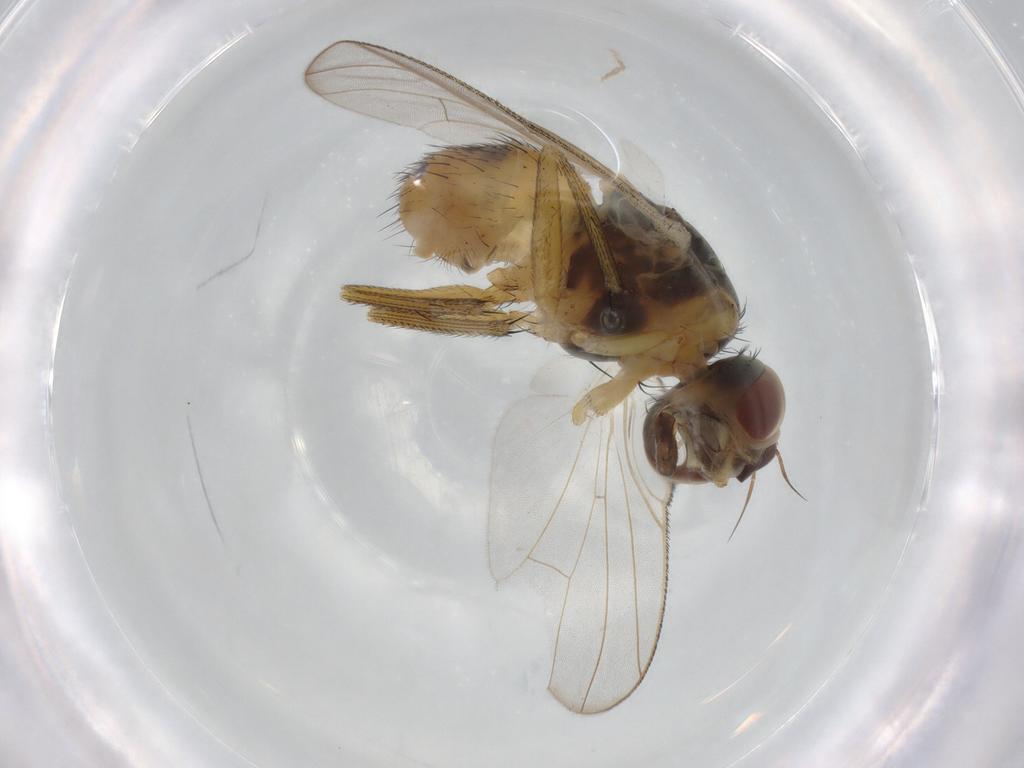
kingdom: Animalia
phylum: Arthropoda
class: Insecta
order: Diptera
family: Muscidae
